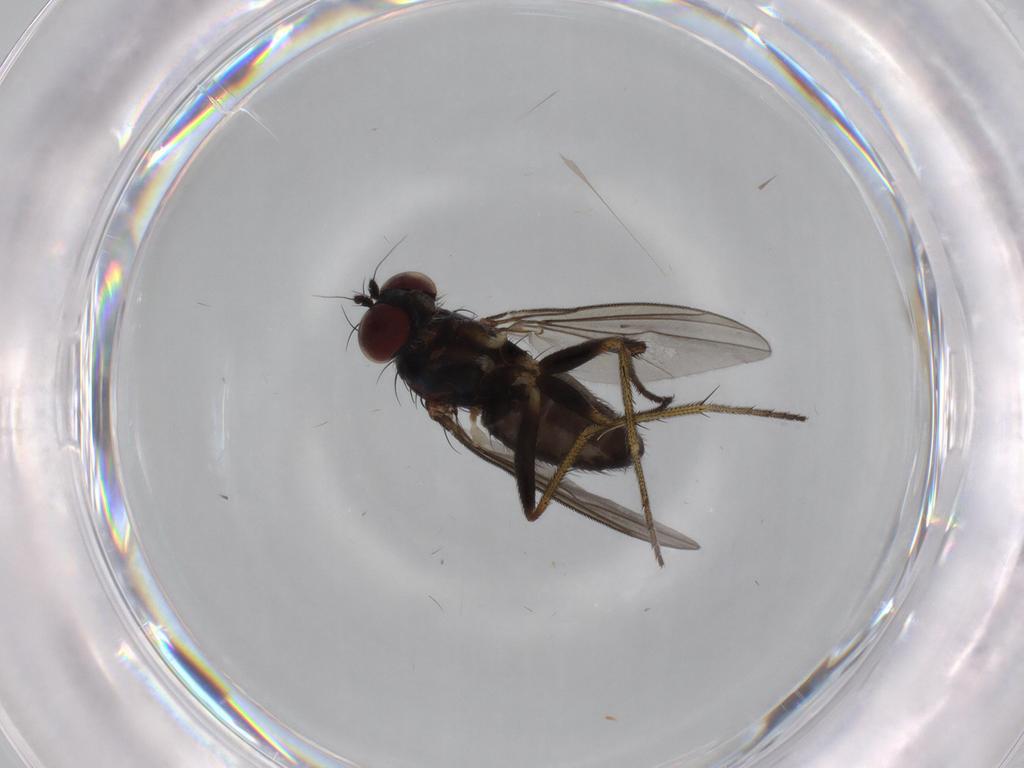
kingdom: Animalia
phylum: Arthropoda
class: Insecta
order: Diptera
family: Dolichopodidae
